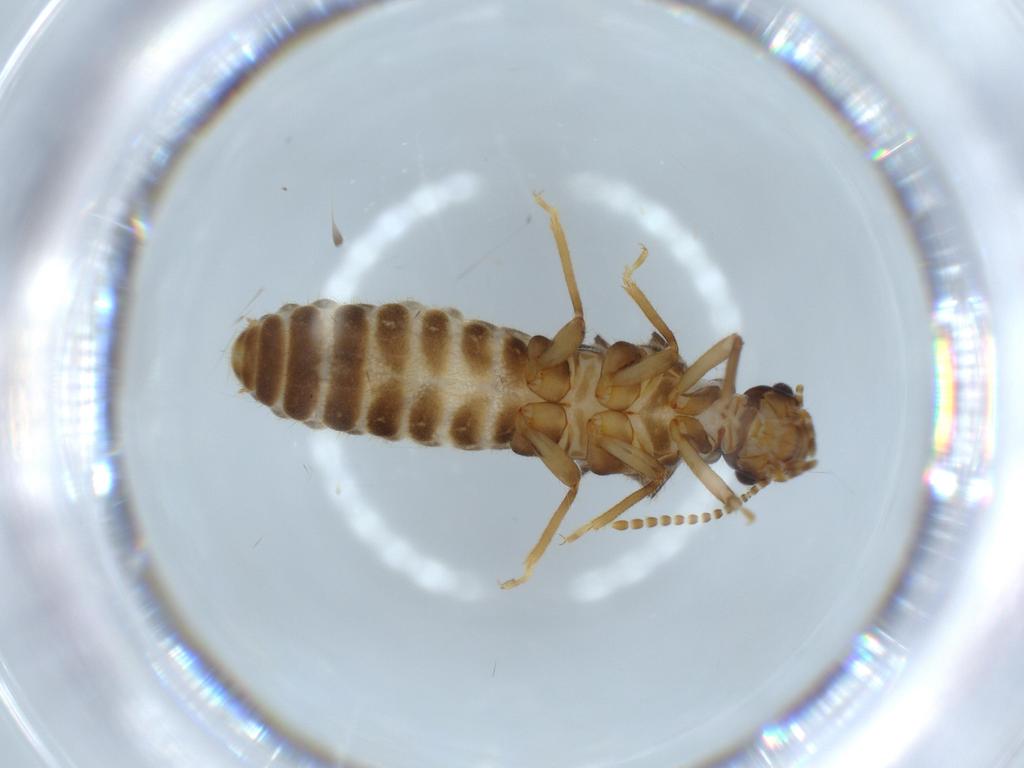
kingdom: Animalia
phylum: Arthropoda
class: Insecta
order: Blattodea
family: Termitidae
